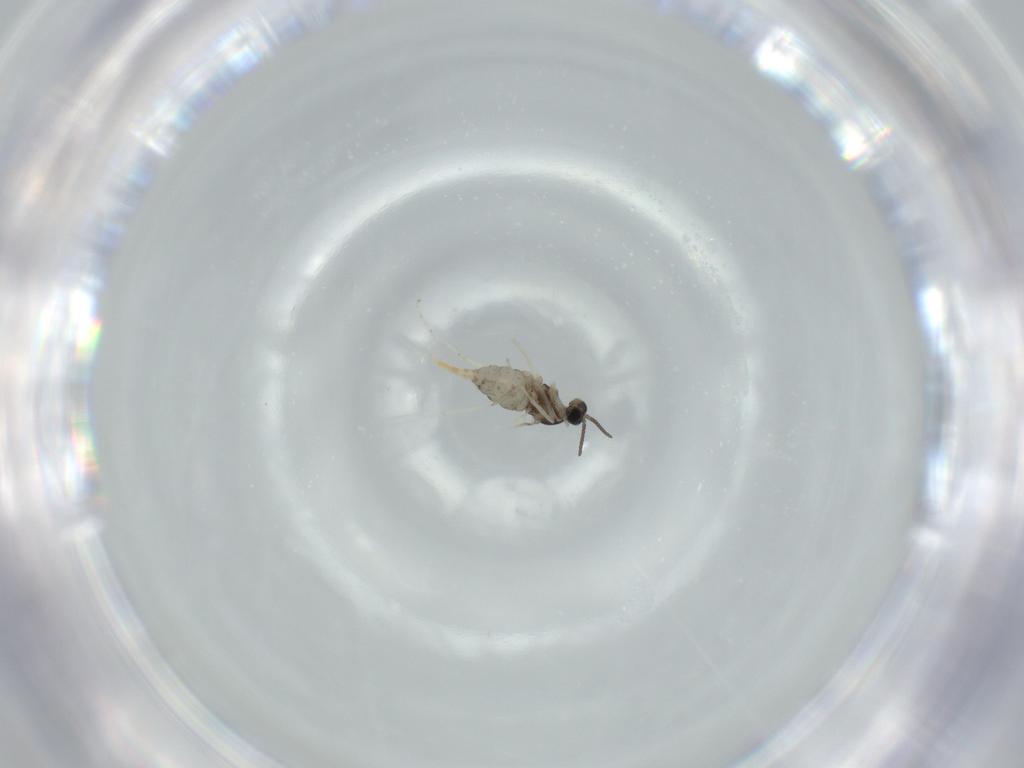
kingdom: Animalia
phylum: Arthropoda
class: Insecta
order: Diptera
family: Cecidomyiidae
